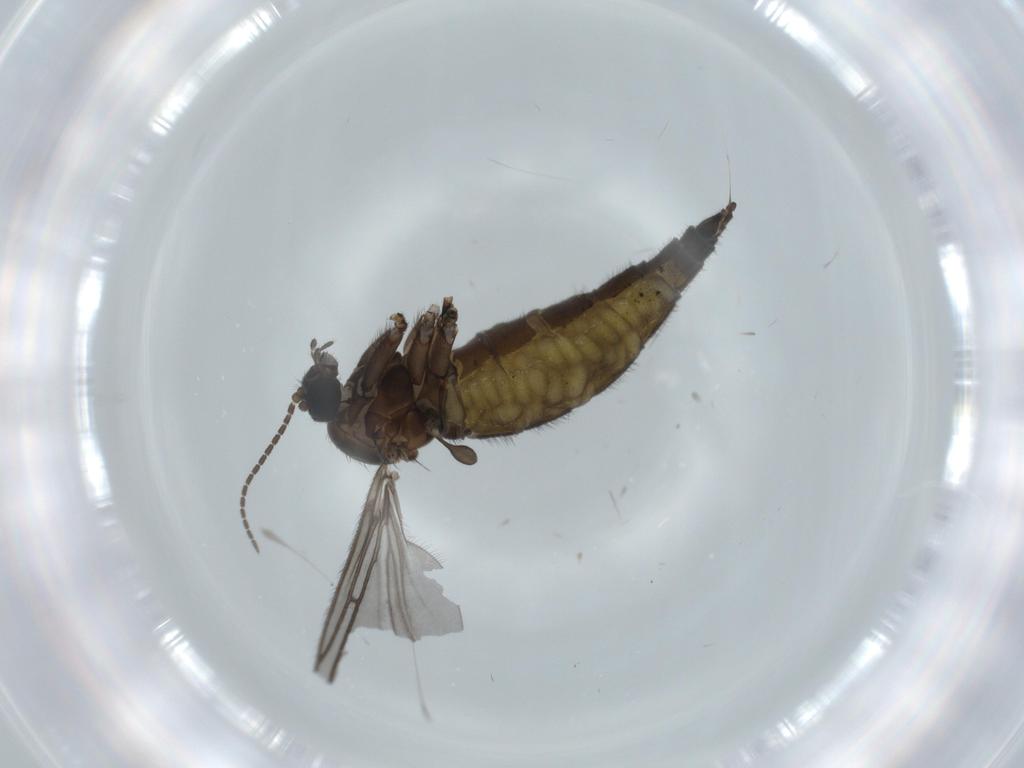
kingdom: Animalia
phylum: Arthropoda
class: Insecta
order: Diptera
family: Sciaridae
